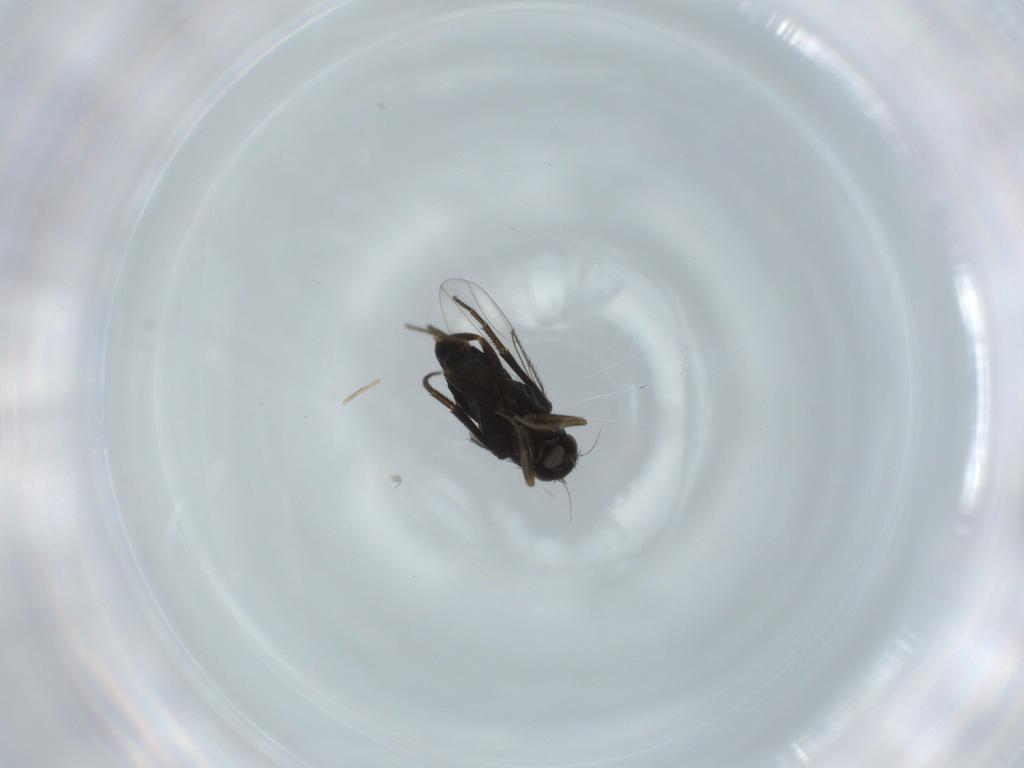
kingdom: Animalia
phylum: Arthropoda
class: Insecta
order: Diptera
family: Phoridae
